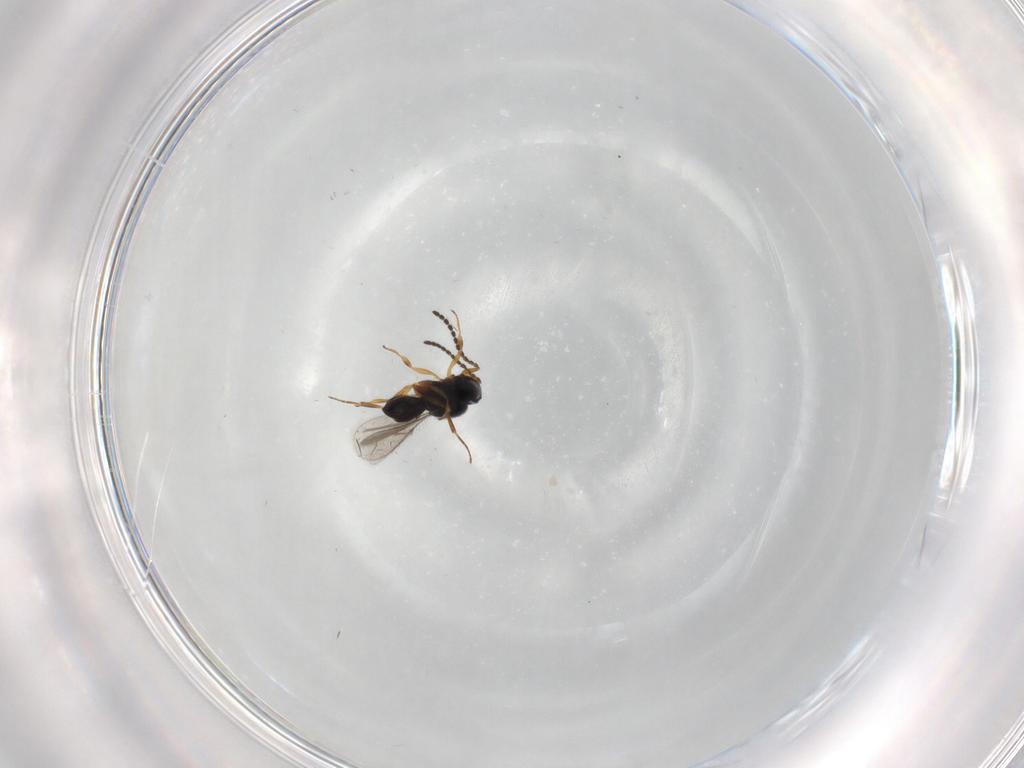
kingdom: Animalia
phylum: Arthropoda
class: Insecta
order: Hymenoptera
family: Scelionidae
